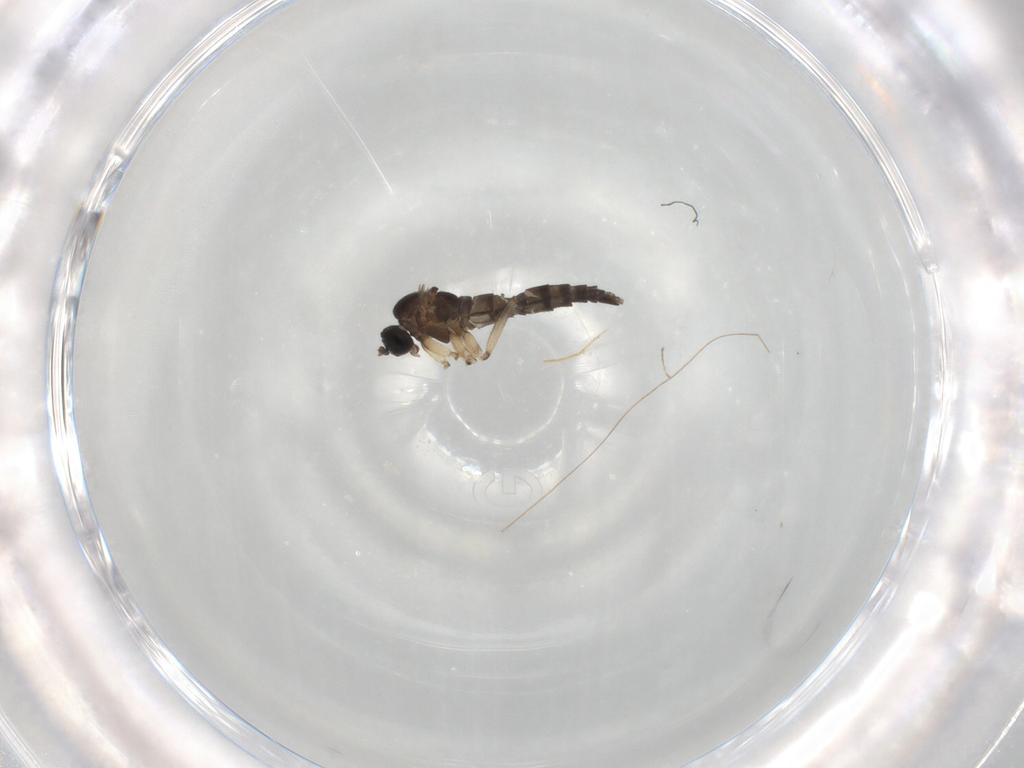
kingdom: Animalia
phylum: Arthropoda
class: Insecta
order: Diptera
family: Sciaridae
